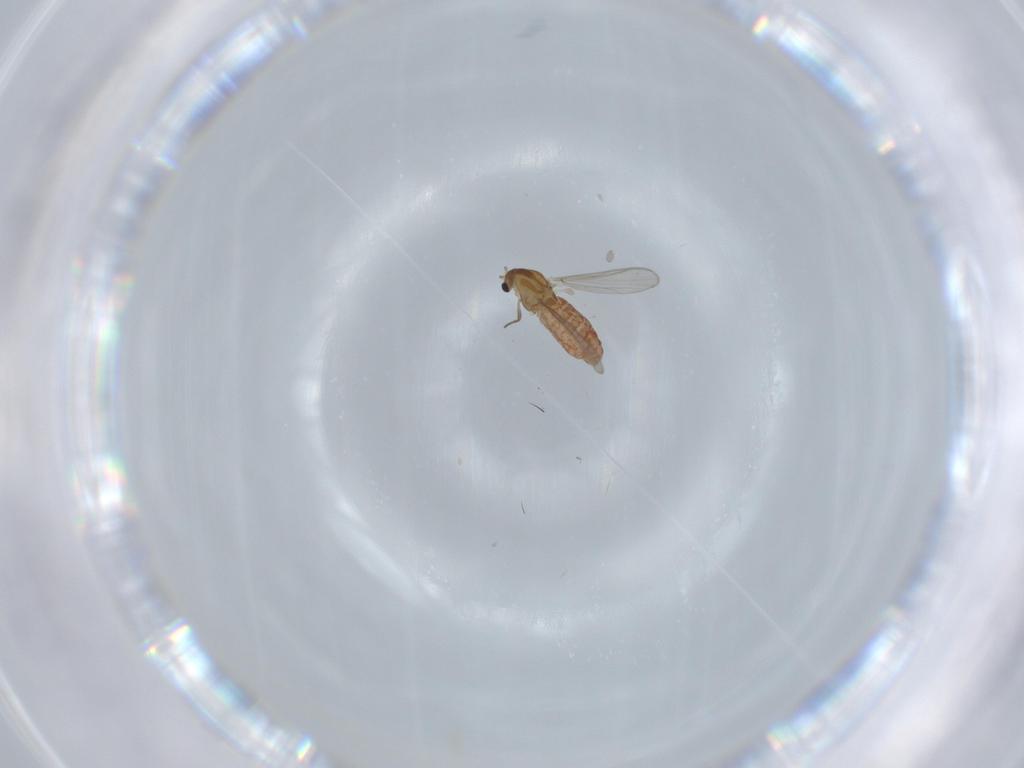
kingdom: Animalia
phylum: Arthropoda
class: Insecta
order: Diptera
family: Chironomidae
